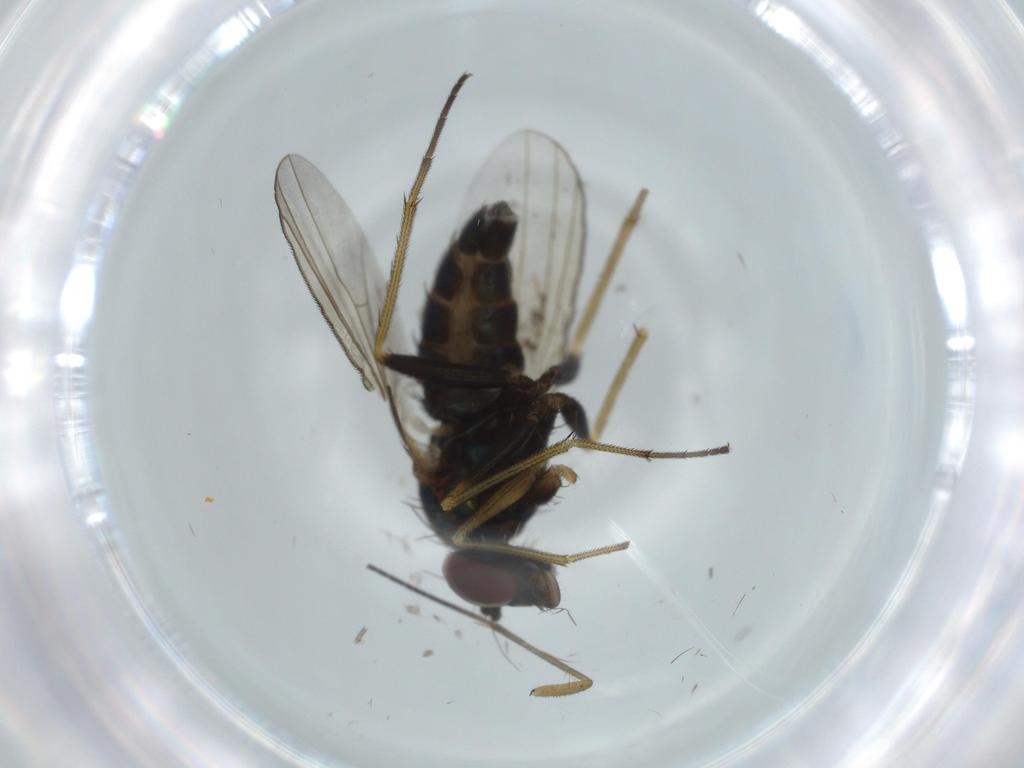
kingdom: Animalia
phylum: Arthropoda
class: Insecta
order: Diptera
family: Dolichopodidae
